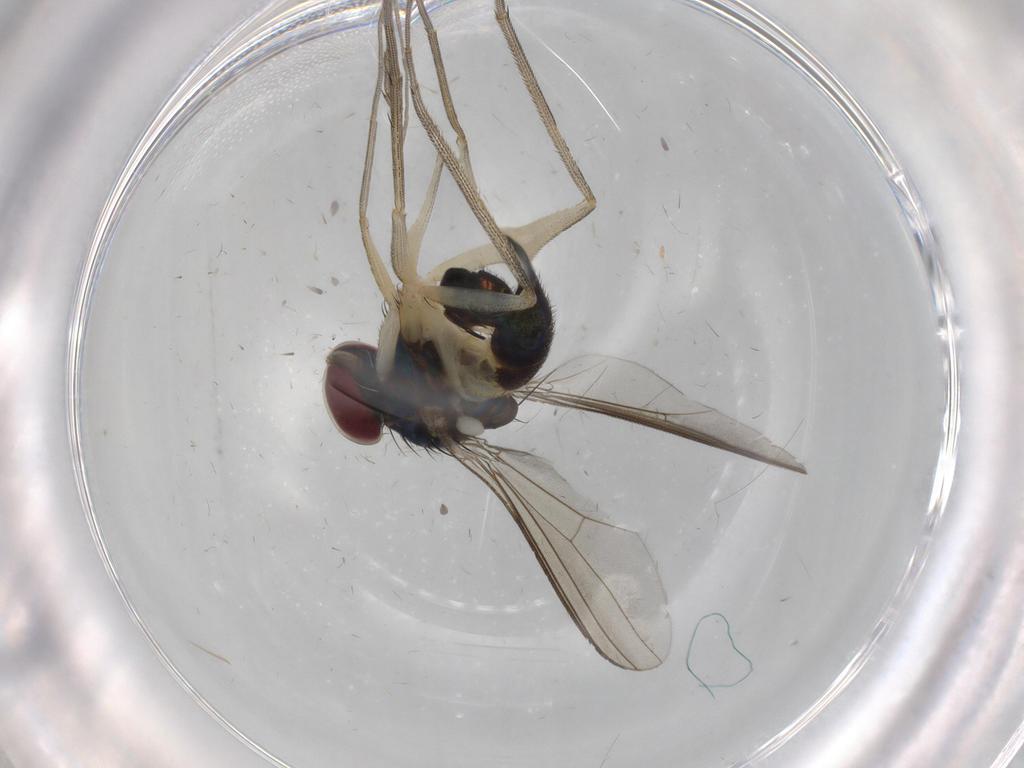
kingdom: Animalia
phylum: Arthropoda
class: Insecta
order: Diptera
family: Dolichopodidae
